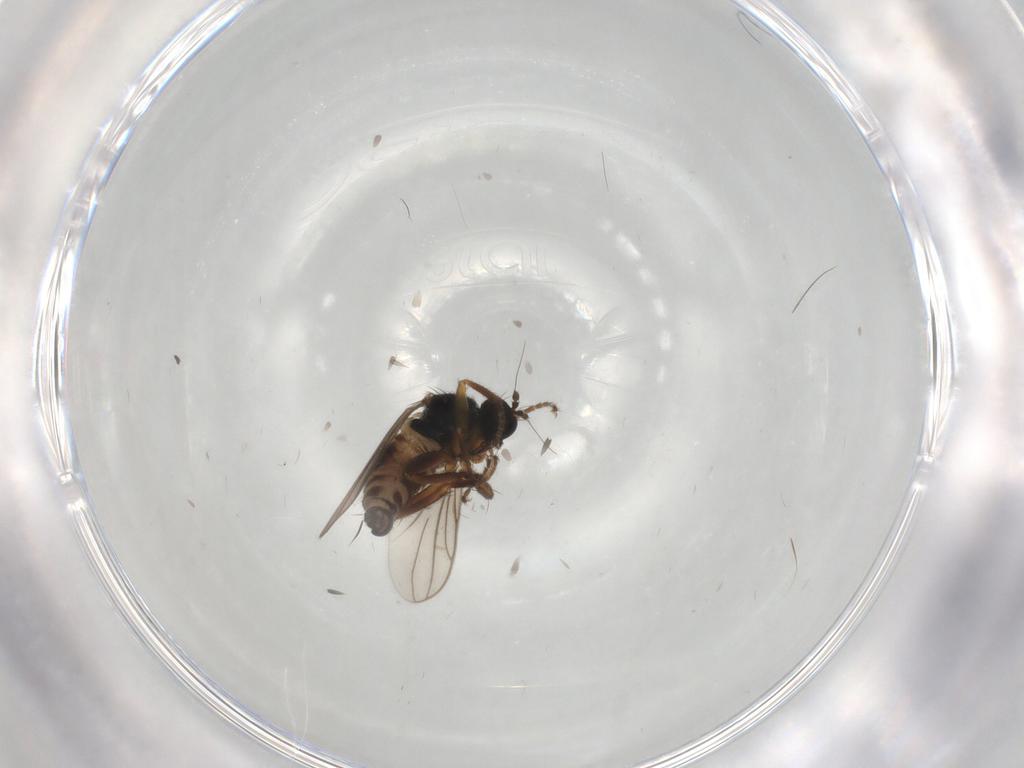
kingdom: Animalia
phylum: Arthropoda
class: Insecta
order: Diptera
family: Hybotidae
